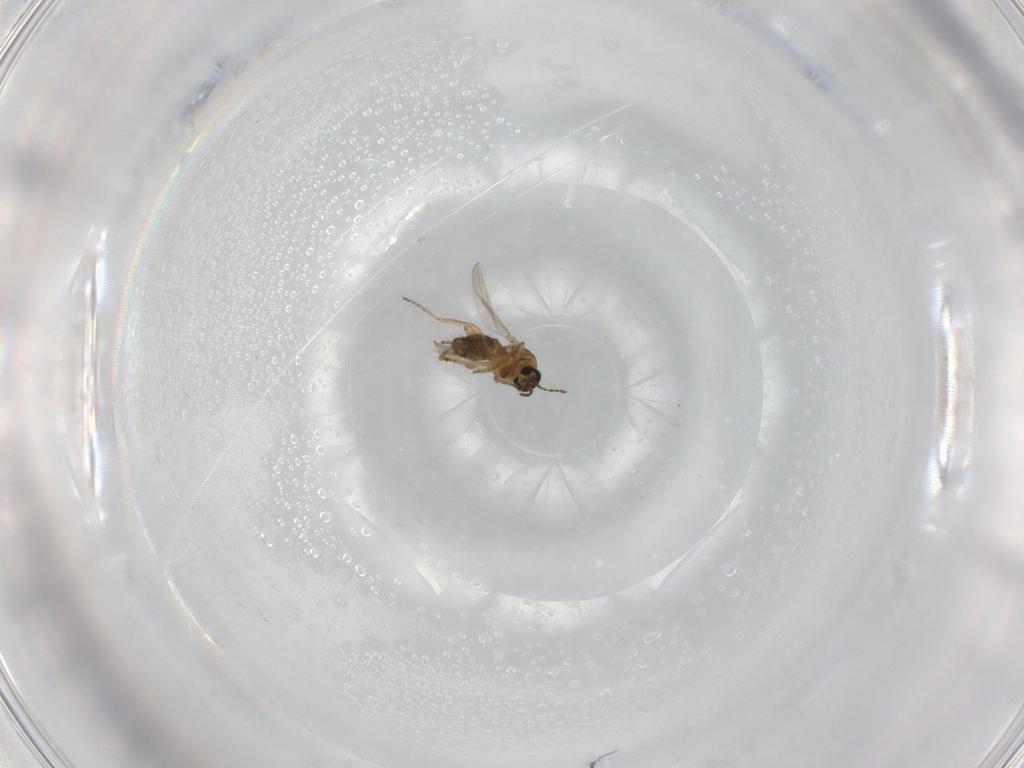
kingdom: Animalia
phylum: Arthropoda
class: Insecta
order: Diptera
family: Ceratopogonidae
